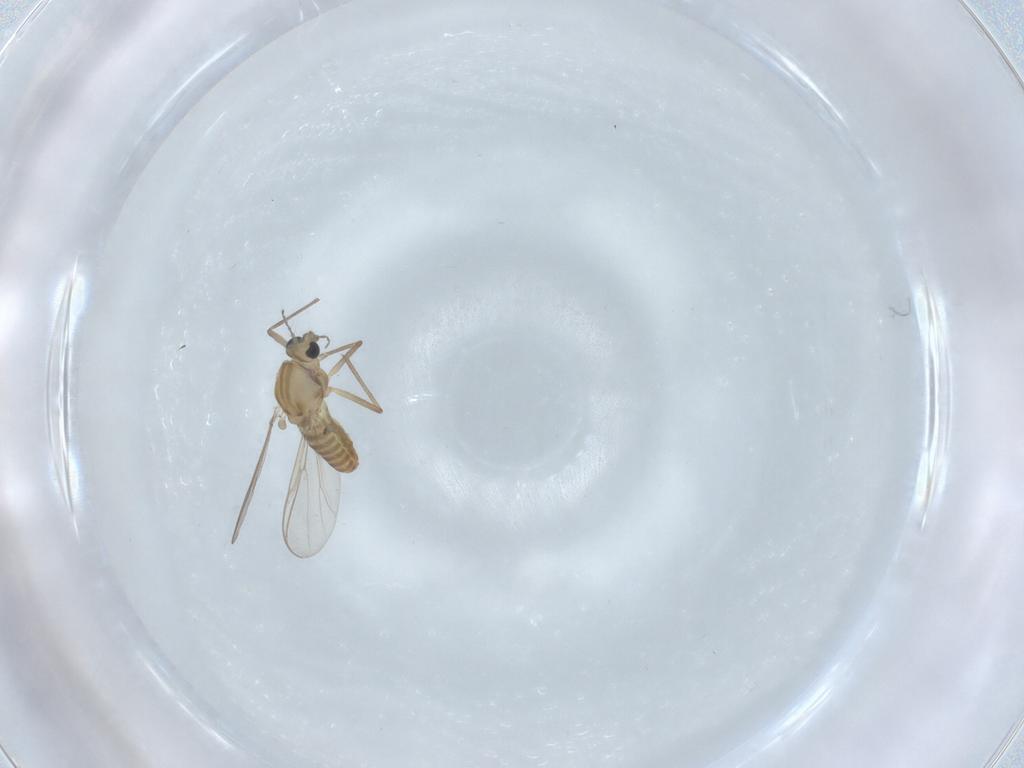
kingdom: Animalia
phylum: Arthropoda
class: Insecta
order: Diptera
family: Chironomidae
